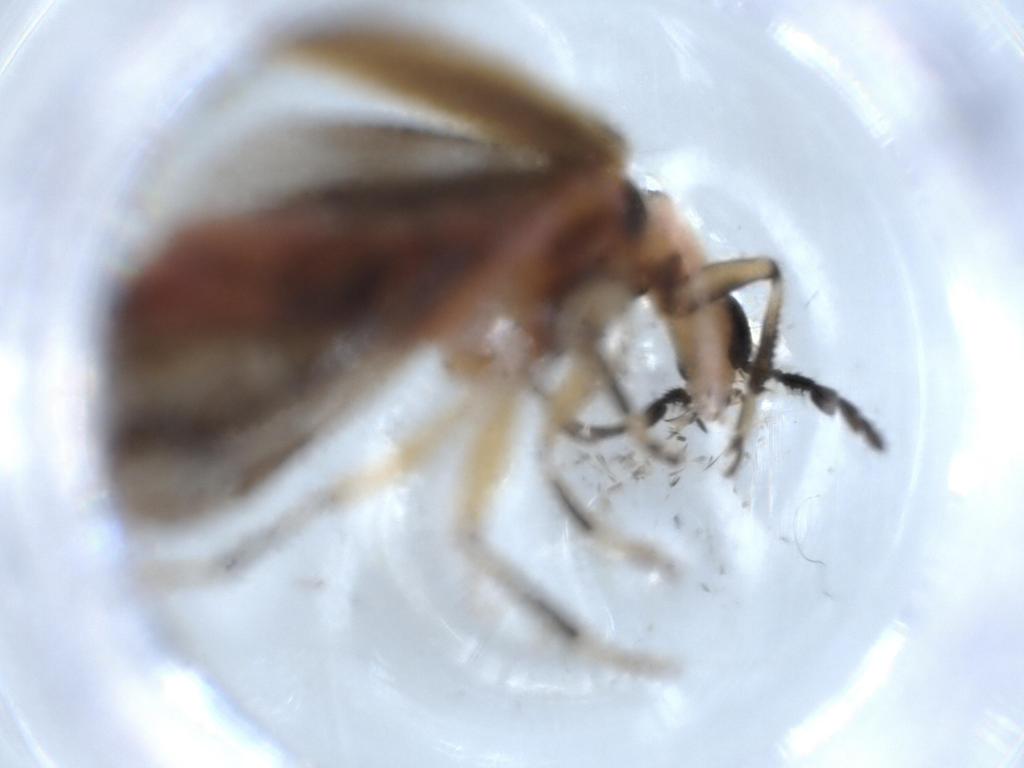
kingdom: Animalia
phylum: Arthropoda
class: Insecta
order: Coleoptera
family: Cleridae
